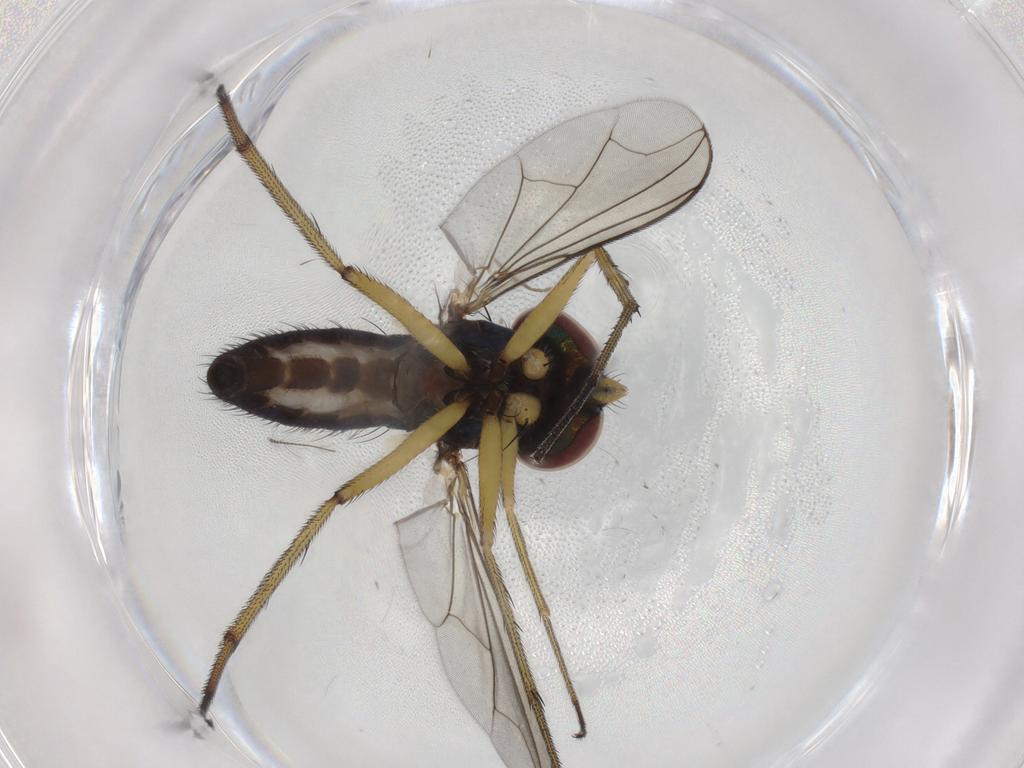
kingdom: Animalia
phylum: Arthropoda
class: Insecta
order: Diptera
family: Dolichopodidae
